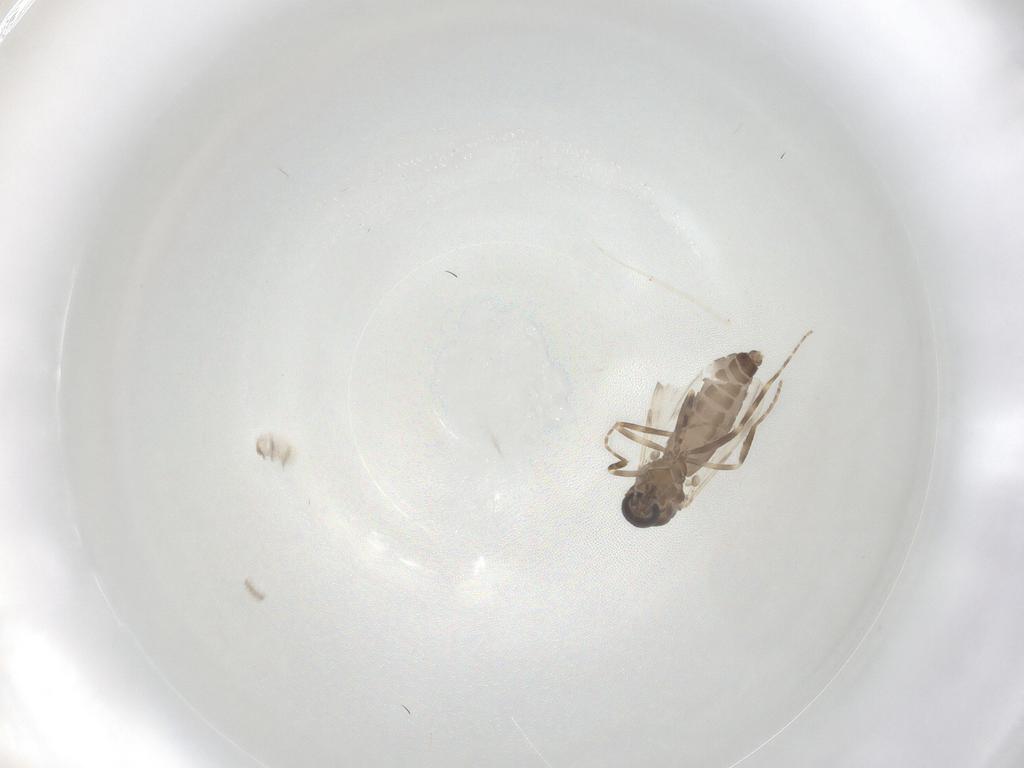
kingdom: Animalia
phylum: Arthropoda
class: Insecta
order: Diptera
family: Ceratopogonidae
